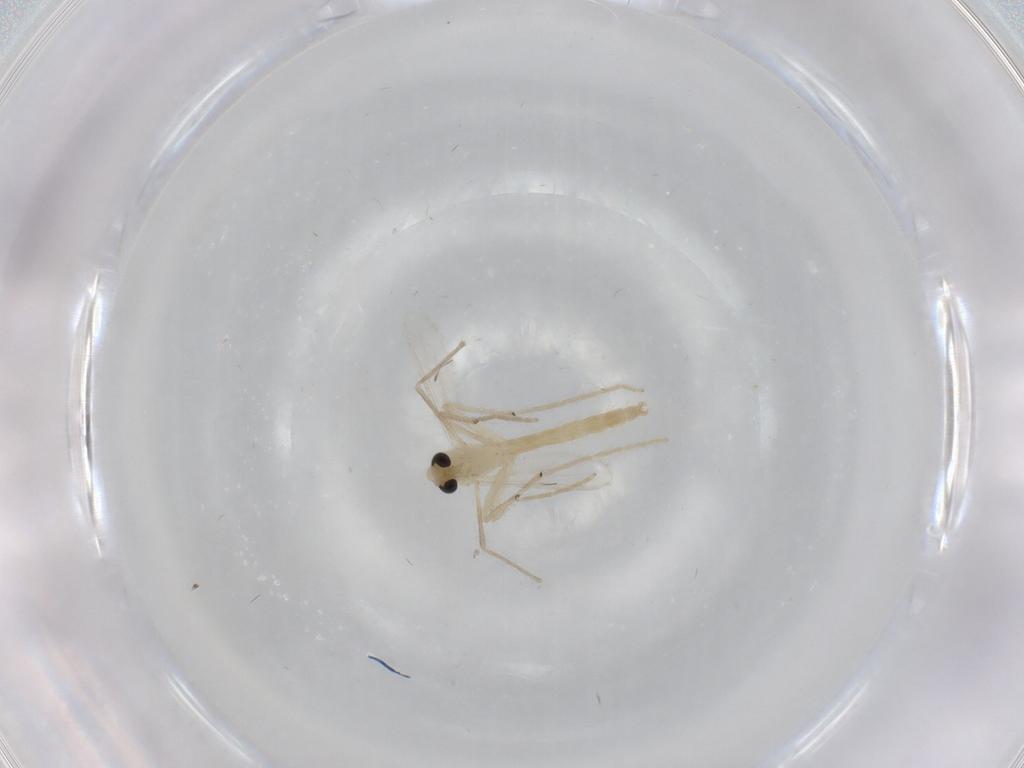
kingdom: Animalia
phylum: Arthropoda
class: Insecta
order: Diptera
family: Chironomidae
